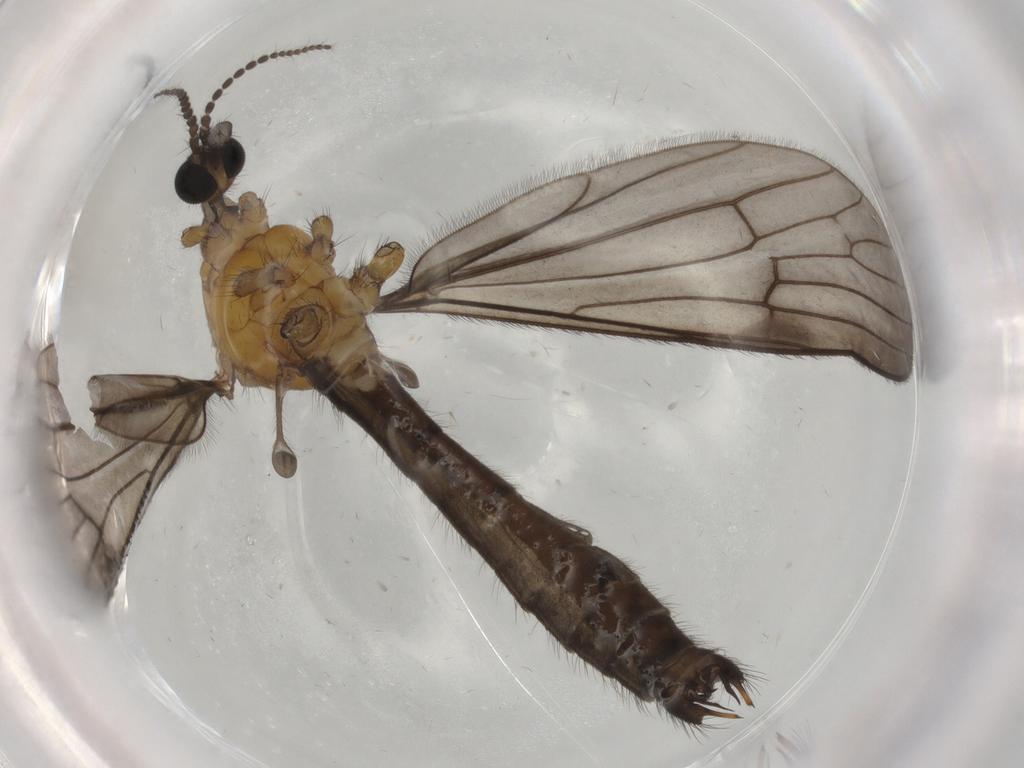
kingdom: Animalia
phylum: Arthropoda
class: Insecta
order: Diptera
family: Limoniidae
